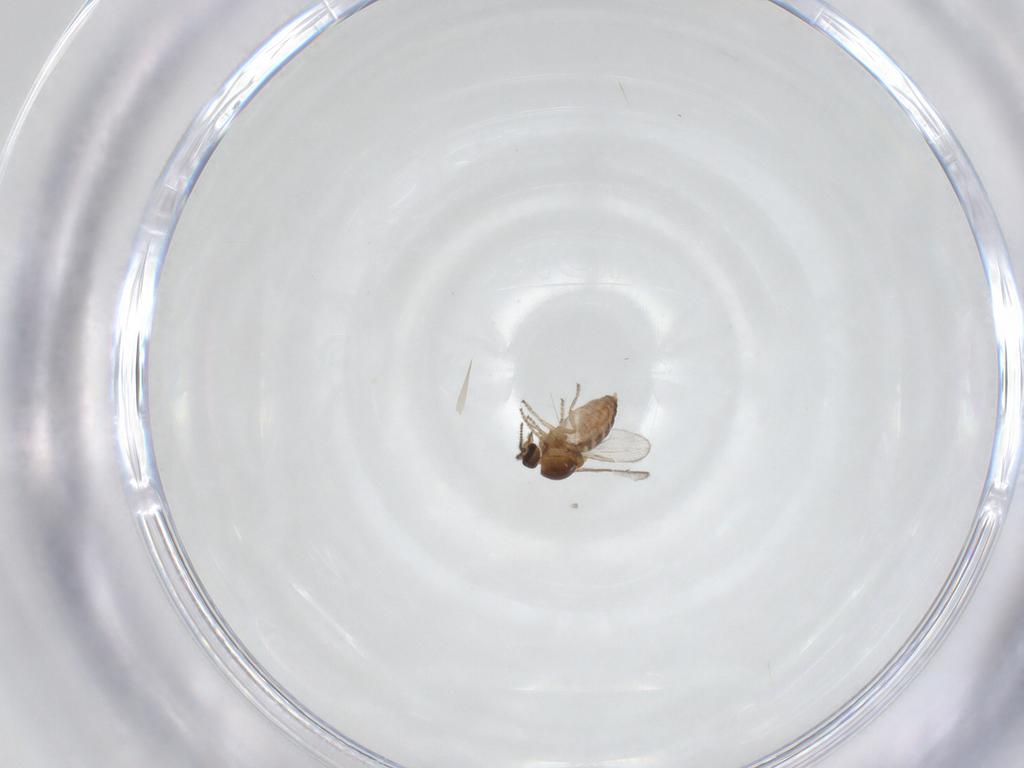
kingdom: Animalia
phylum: Arthropoda
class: Insecta
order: Diptera
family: Ceratopogonidae
